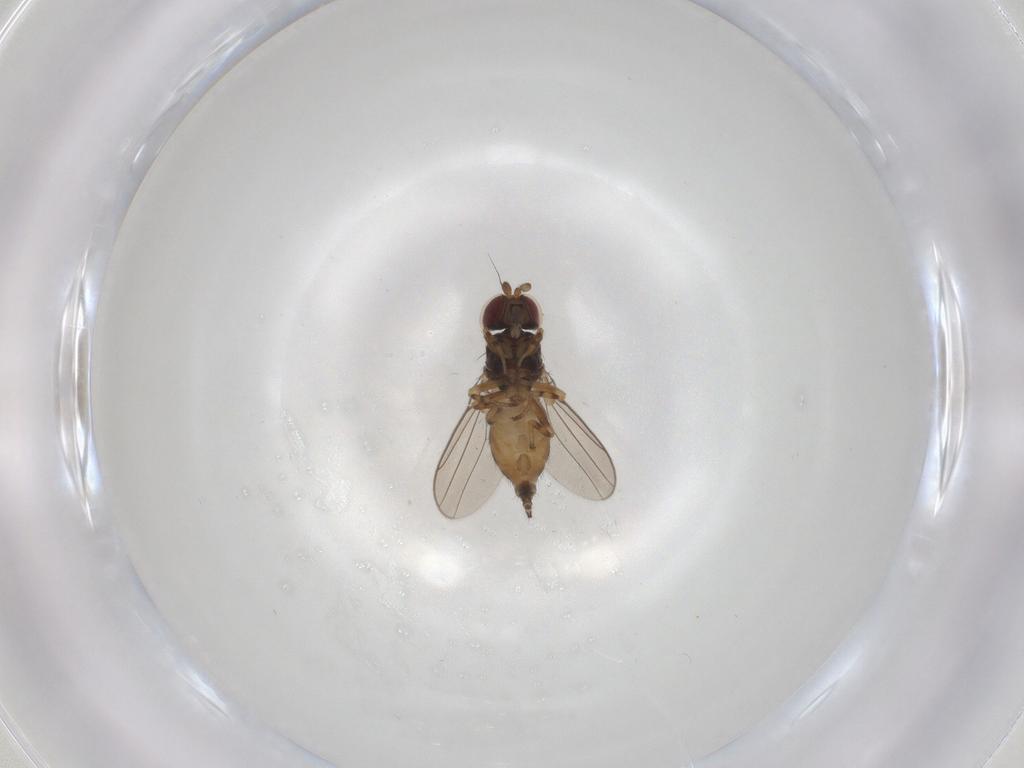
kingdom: Animalia
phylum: Arthropoda
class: Insecta
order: Diptera
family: Chloropidae
